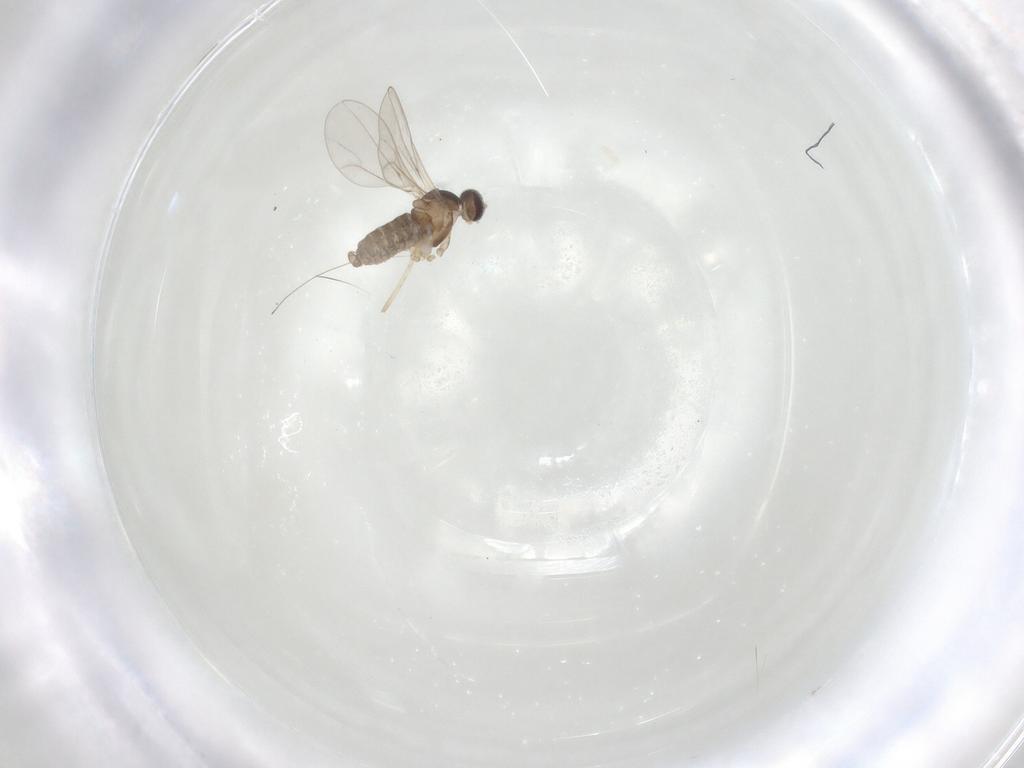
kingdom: Animalia
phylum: Arthropoda
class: Insecta
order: Diptera
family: Cecidomyiidae
